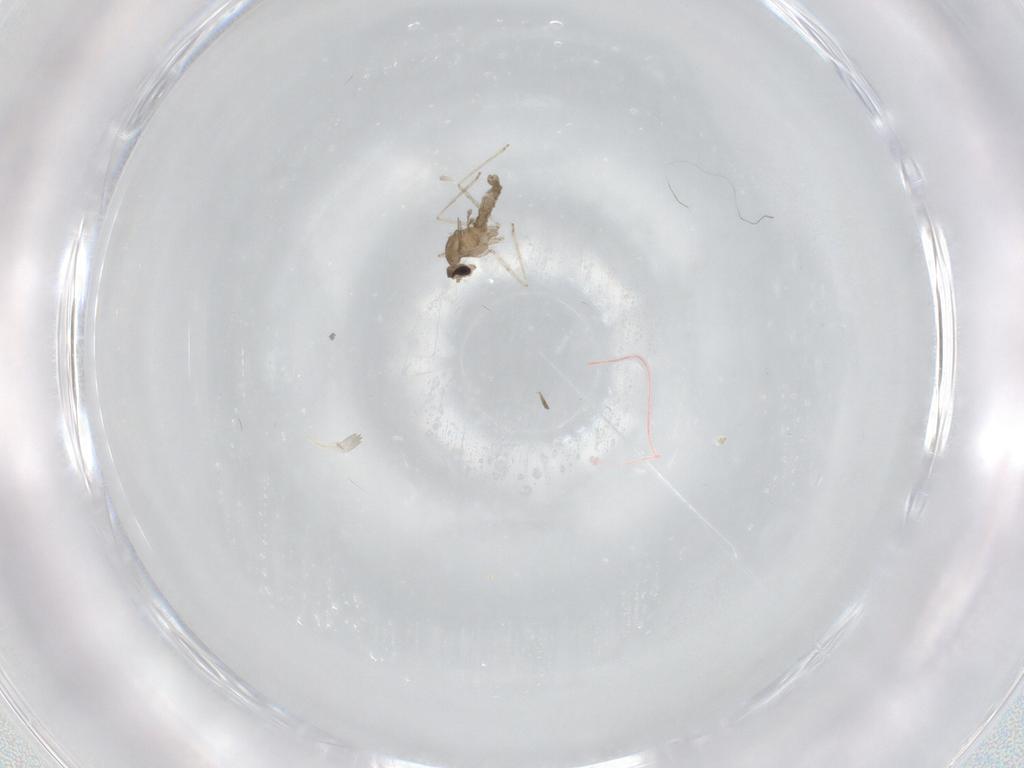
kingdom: Animalia
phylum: Arthropoda
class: Insecta
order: Diptera
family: Cecidomyiidae
